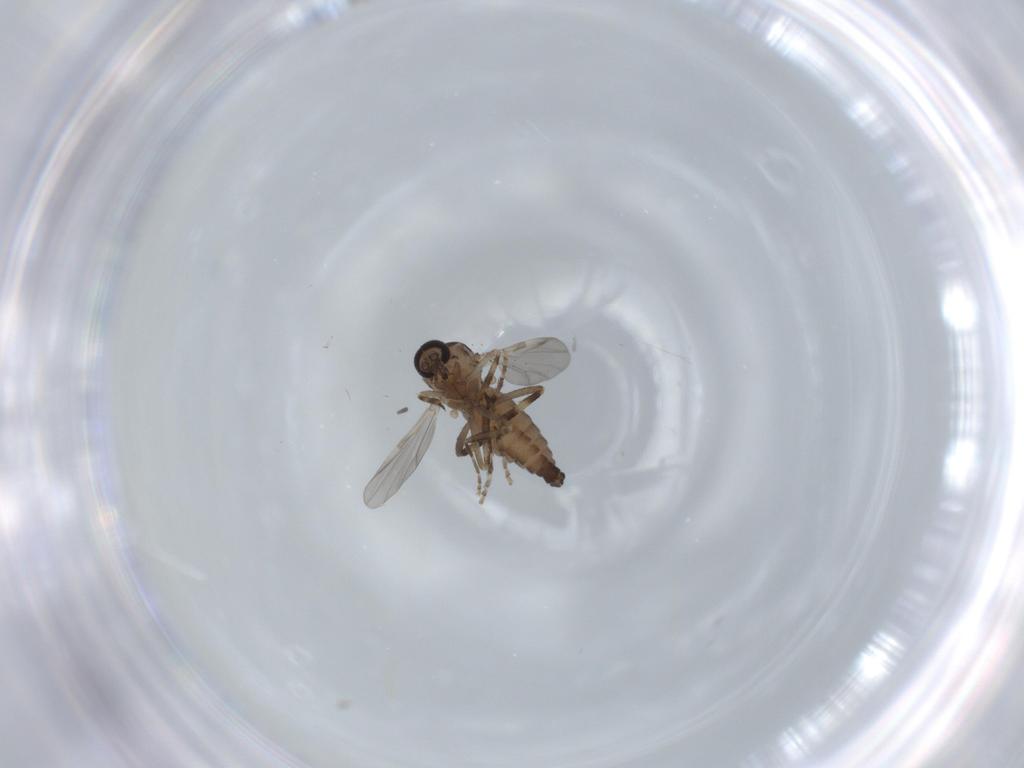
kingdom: Animalia
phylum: Arthropoda
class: Insecta
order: Diptera
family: Ceratopogonidae
